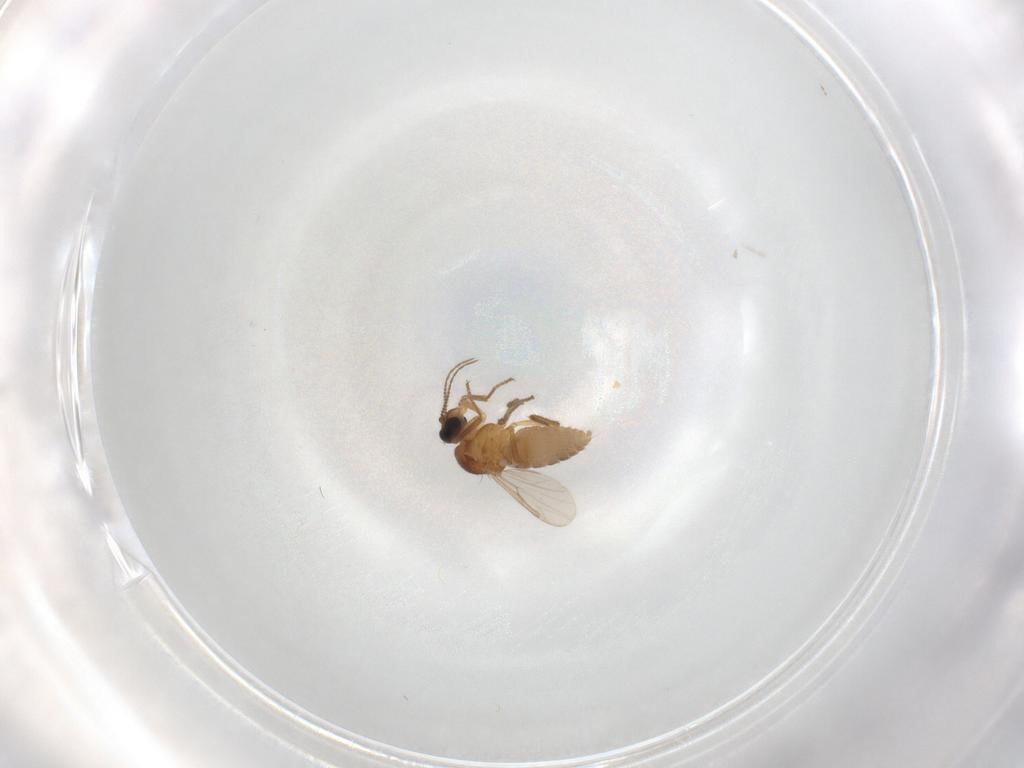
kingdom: Animalia
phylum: Arthropoda
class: Insecta
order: Diptera
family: Ceratopogonidae
